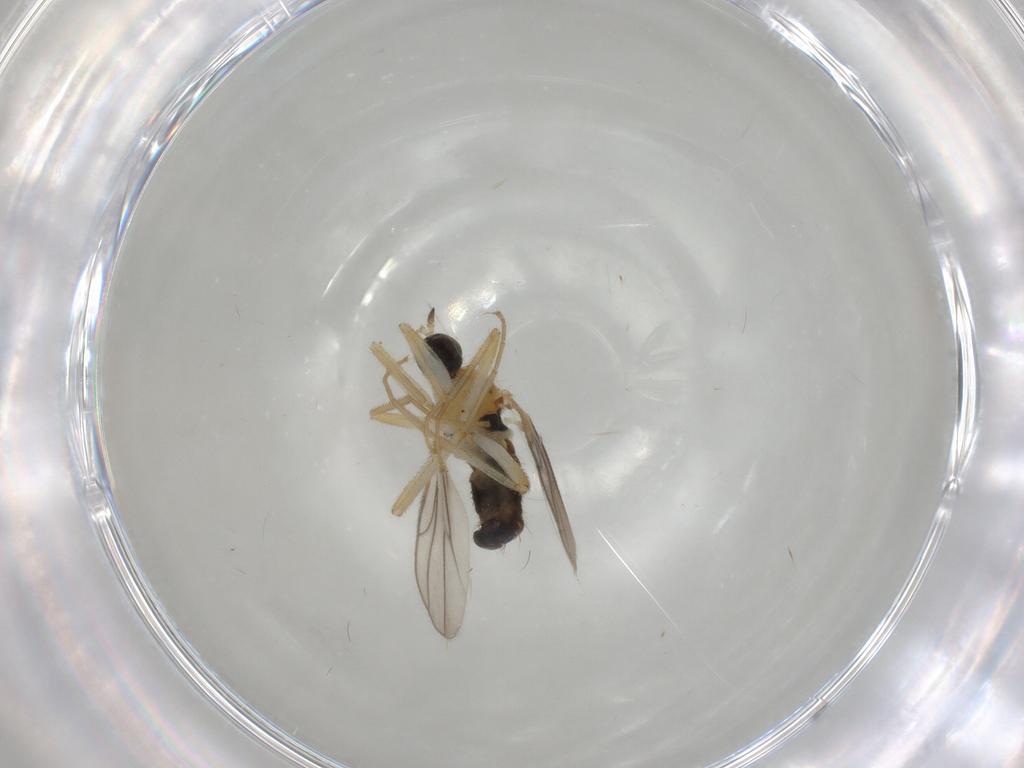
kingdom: Animalia
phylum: Arthropoda
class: Insecta
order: Diptera
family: Hybotidae
